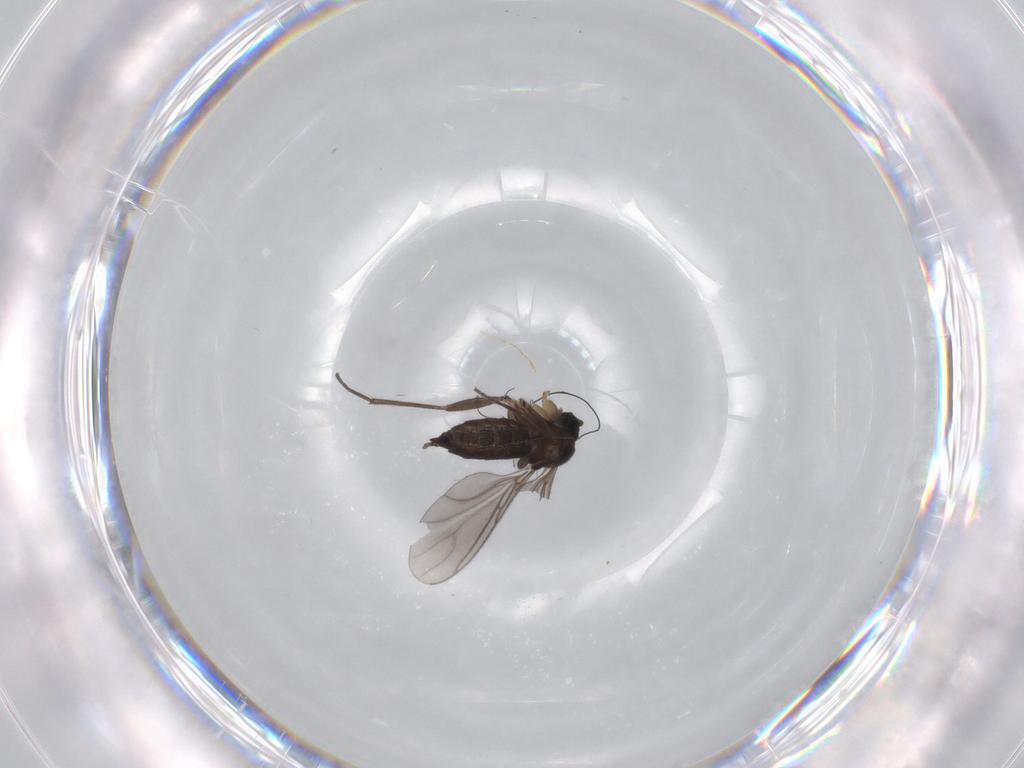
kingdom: Animalia
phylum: Arthropoda
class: Insecta
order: Diptera
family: Sciaridae
